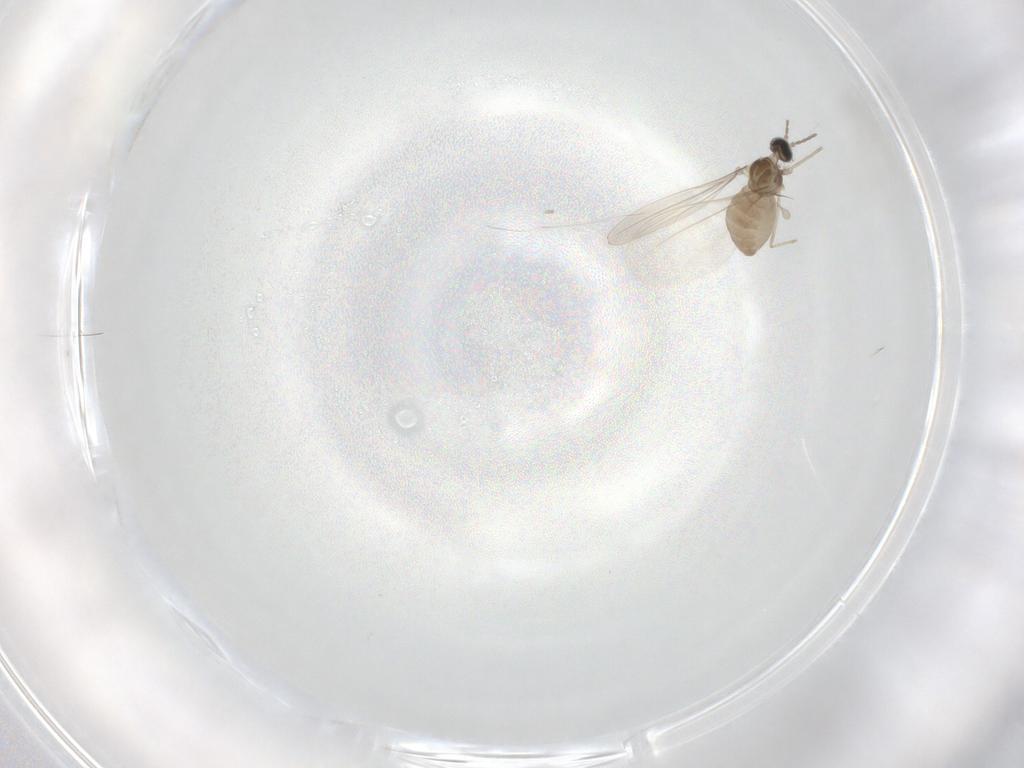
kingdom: Animalia
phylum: Arthropoda
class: Insecta
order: Diptera
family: Cecidomyiidae
